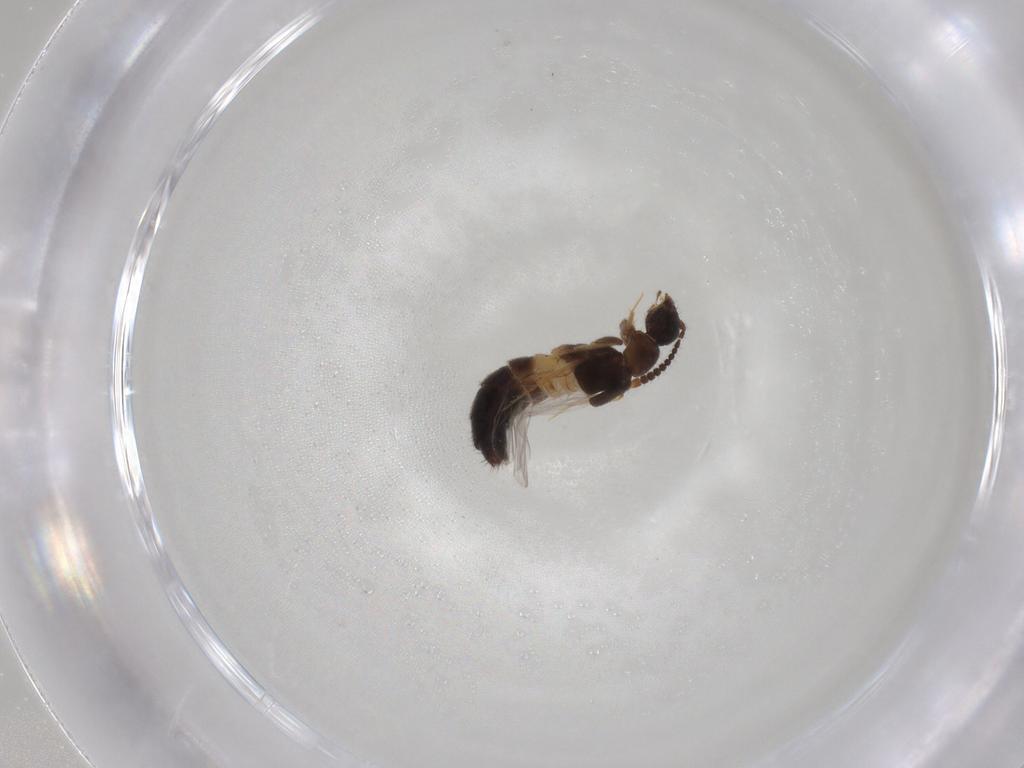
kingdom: Animalia
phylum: Arthropoda
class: Insecta
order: Coleoptera
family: Staphylinidae
